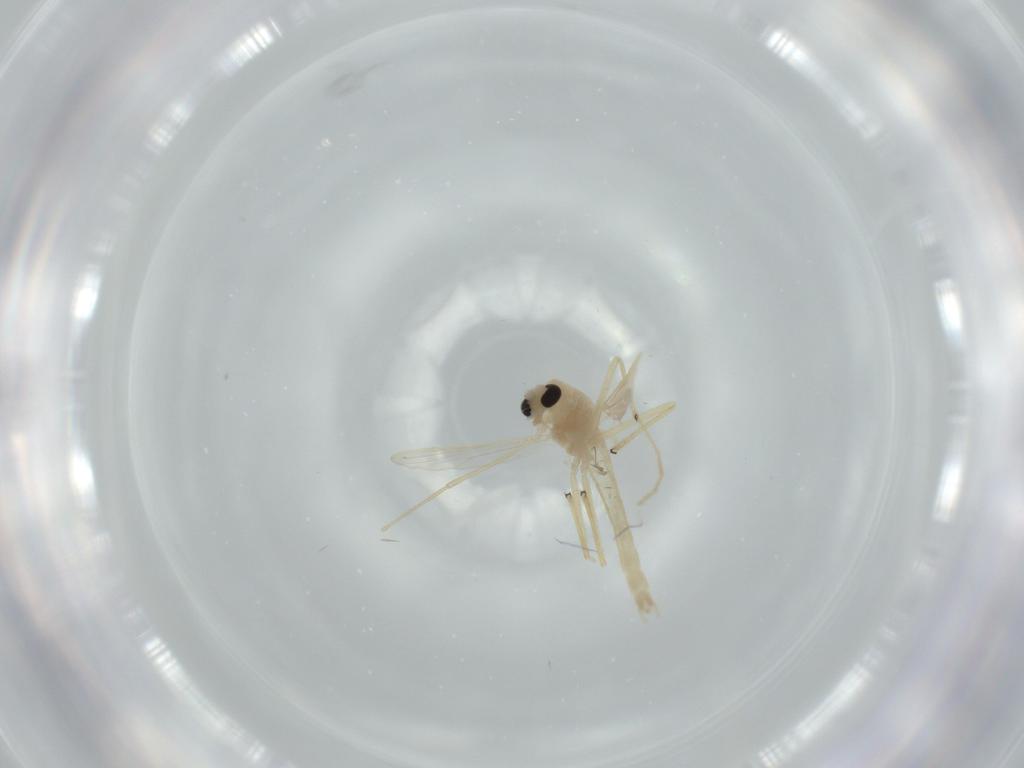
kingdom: Animalia
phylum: Arthropoda
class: Insecta
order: Diptera
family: Chironomidae
